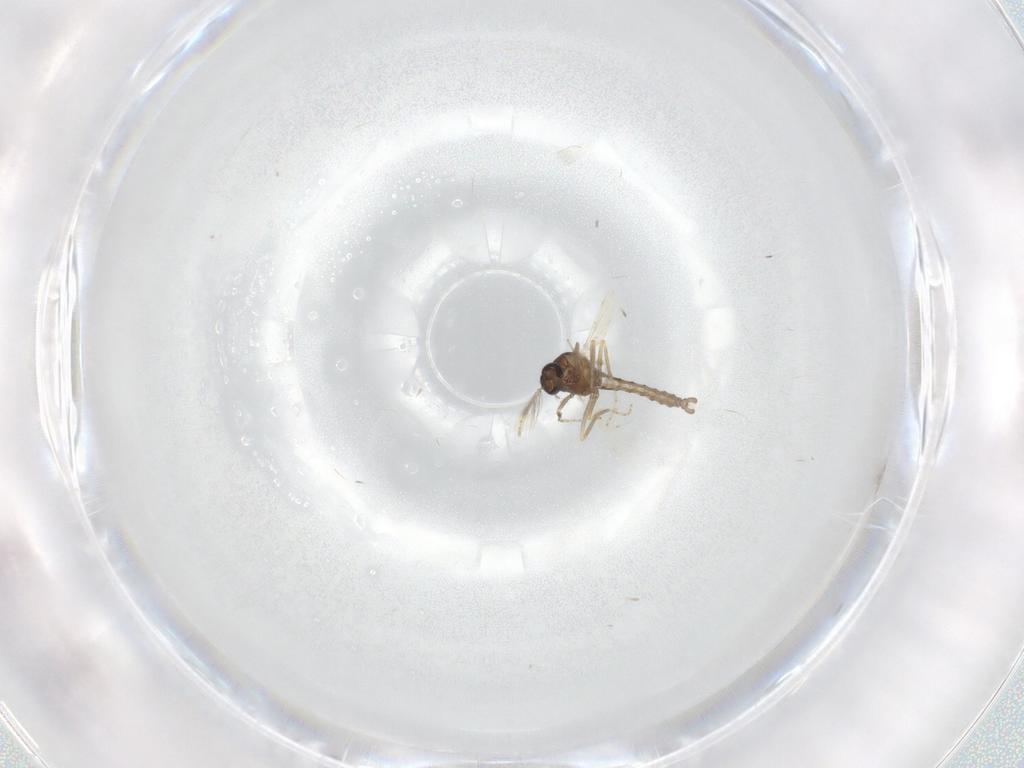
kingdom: Animalia
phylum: Arthropoda
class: Insecta
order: Diptera
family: Ceratopogonidae
